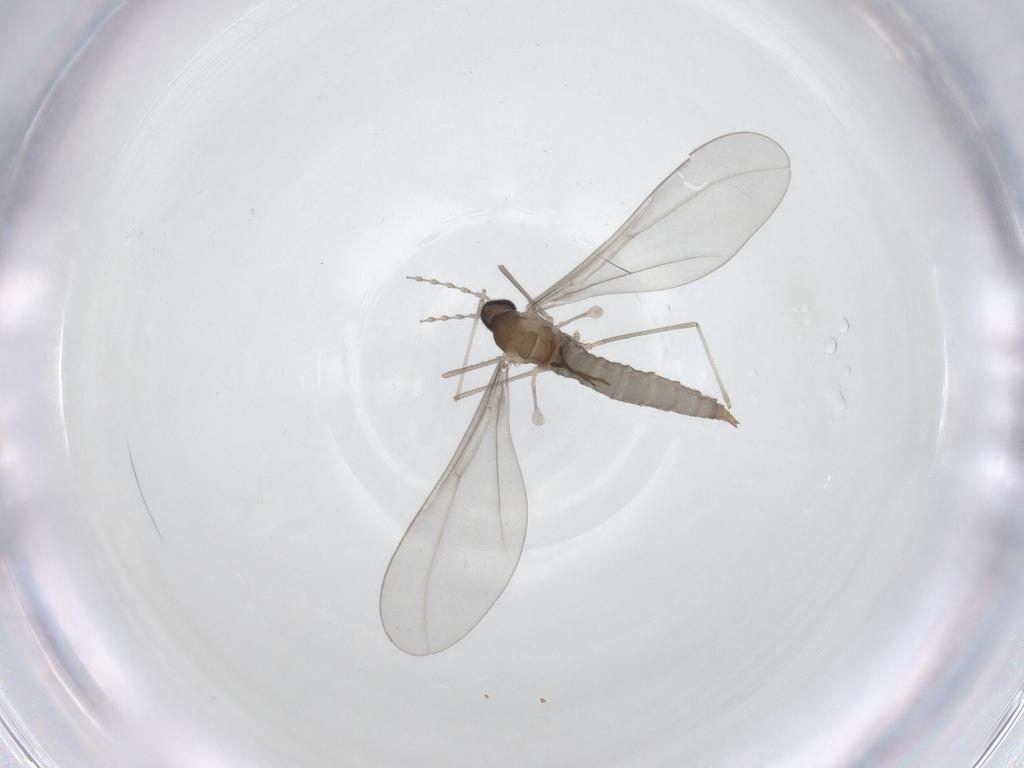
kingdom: Animalia
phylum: Arthropoda
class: Insecta
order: Diptera
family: Cecidomyiidae
